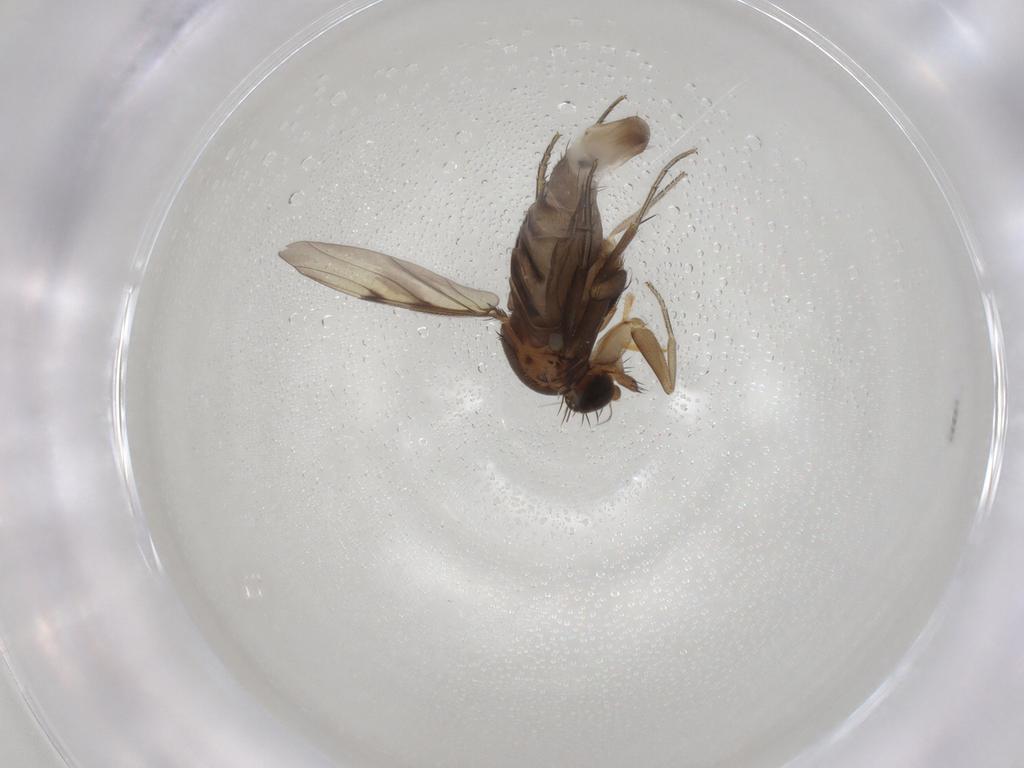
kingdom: Animalia
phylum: Arthropoda
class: Insecta
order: Diptera
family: Phoridae
